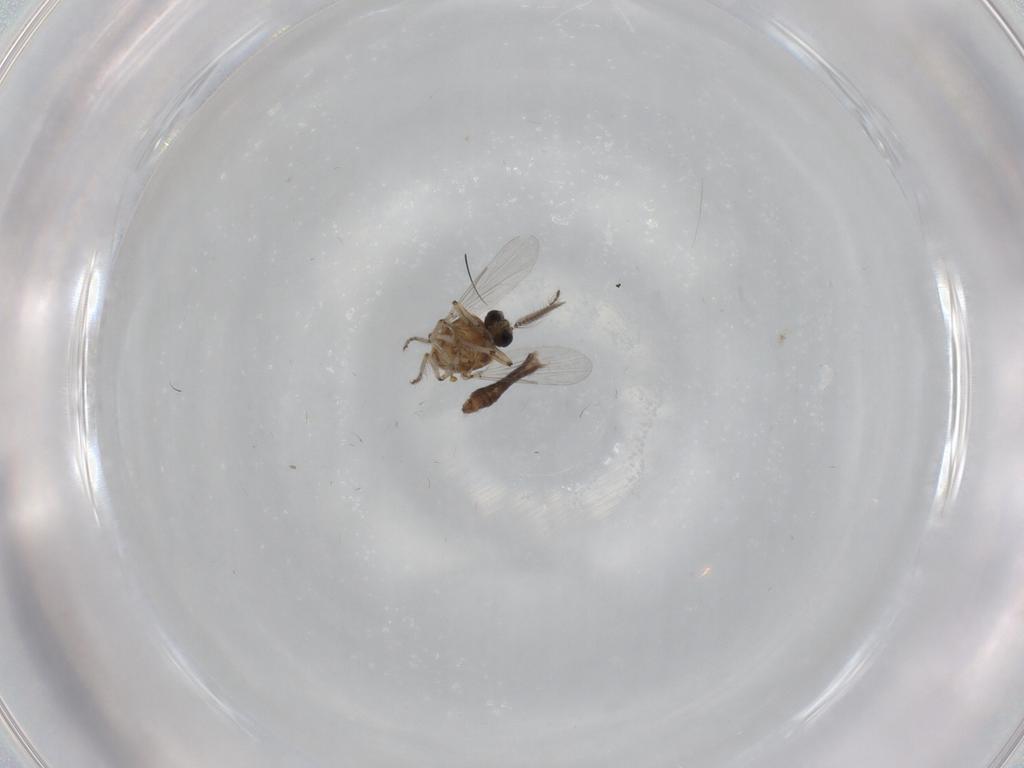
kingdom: Animalia
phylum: Arthropoda
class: Insecta
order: Diptera
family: Ceratopogonidae
